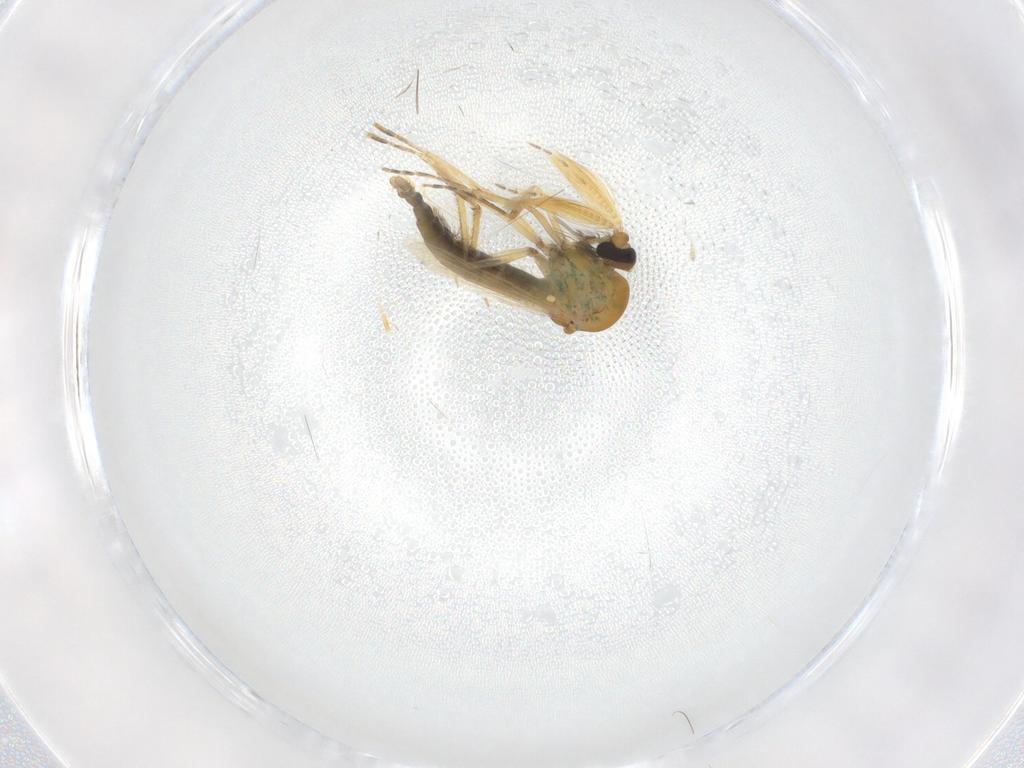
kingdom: Animalia
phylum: Arthropoda
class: Insecta
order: Diptera
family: Ceratopogonidae
